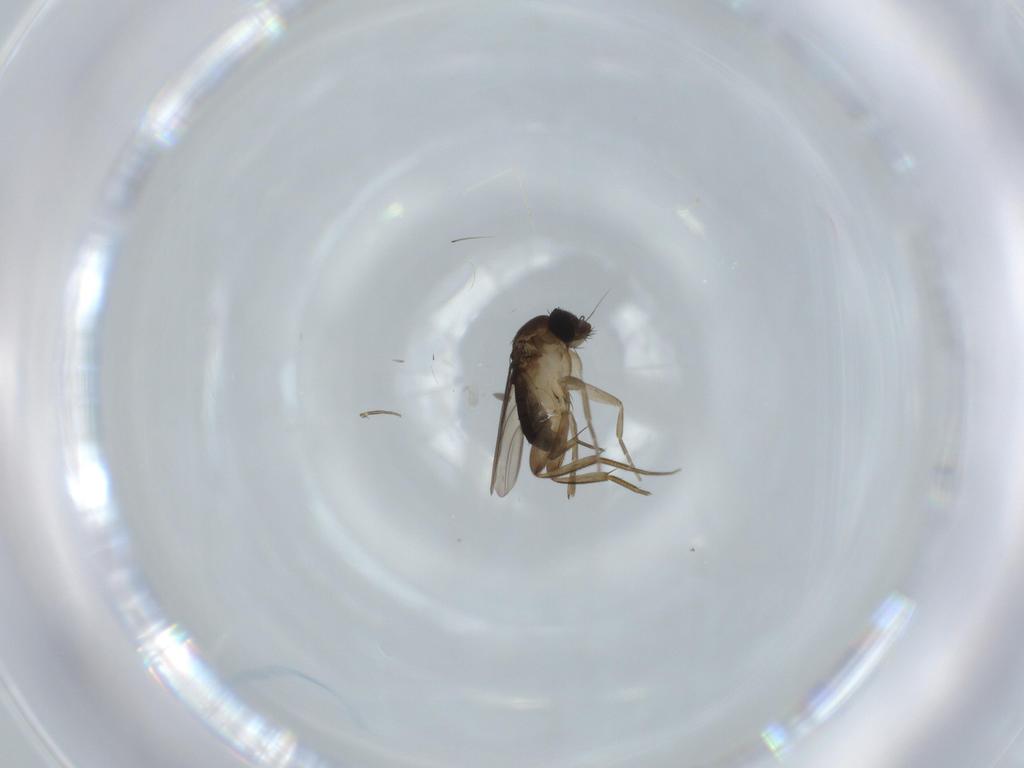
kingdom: Animalia
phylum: Arthropoda
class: Insecta
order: Diptera
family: Phoridae
